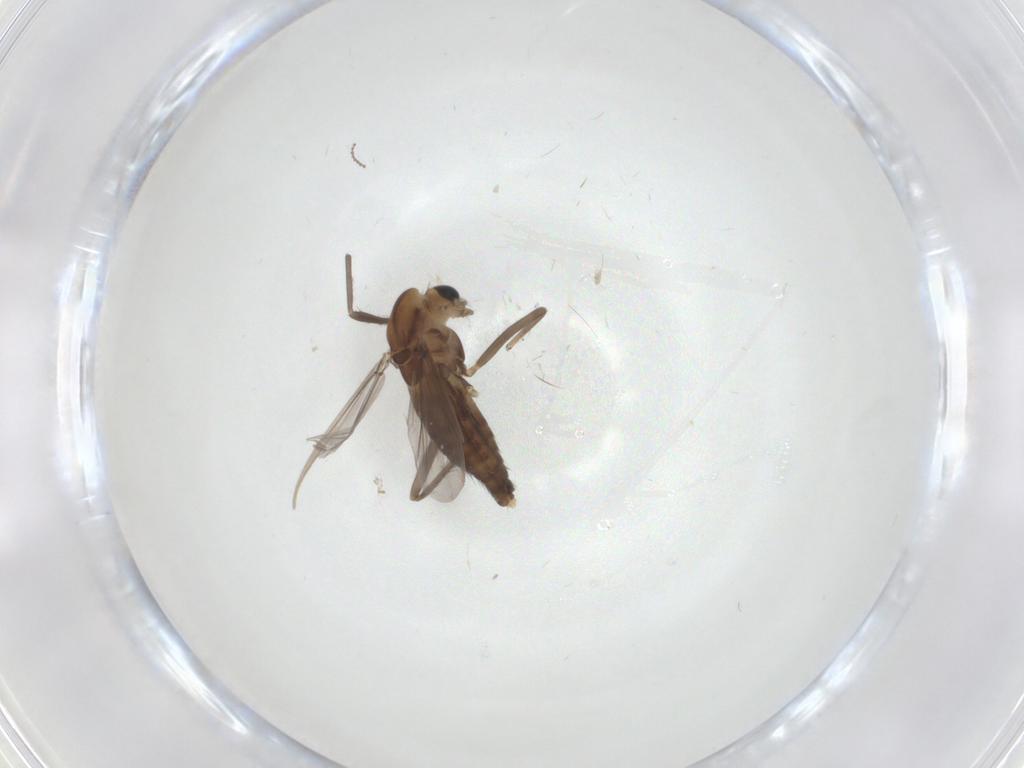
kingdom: Animalia
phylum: Arthropoda
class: Insecta
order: Diptera
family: Chironomidae
